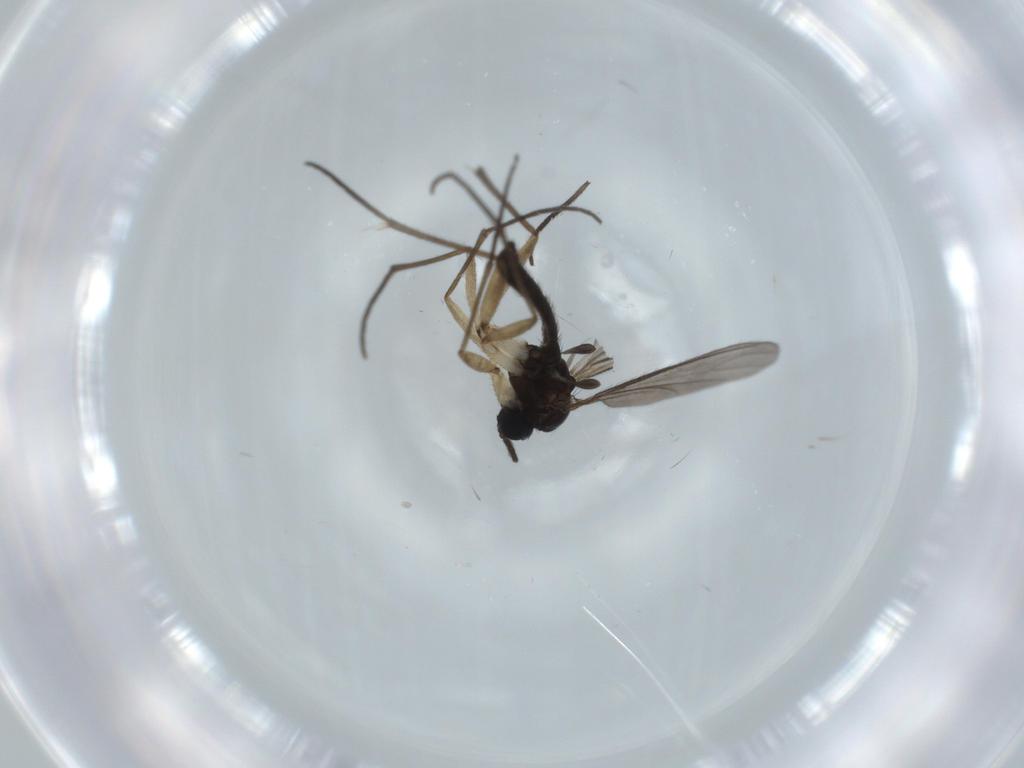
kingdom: Animalia
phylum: Arthropoda
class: Insecta
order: Diptera
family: Sciaridae
